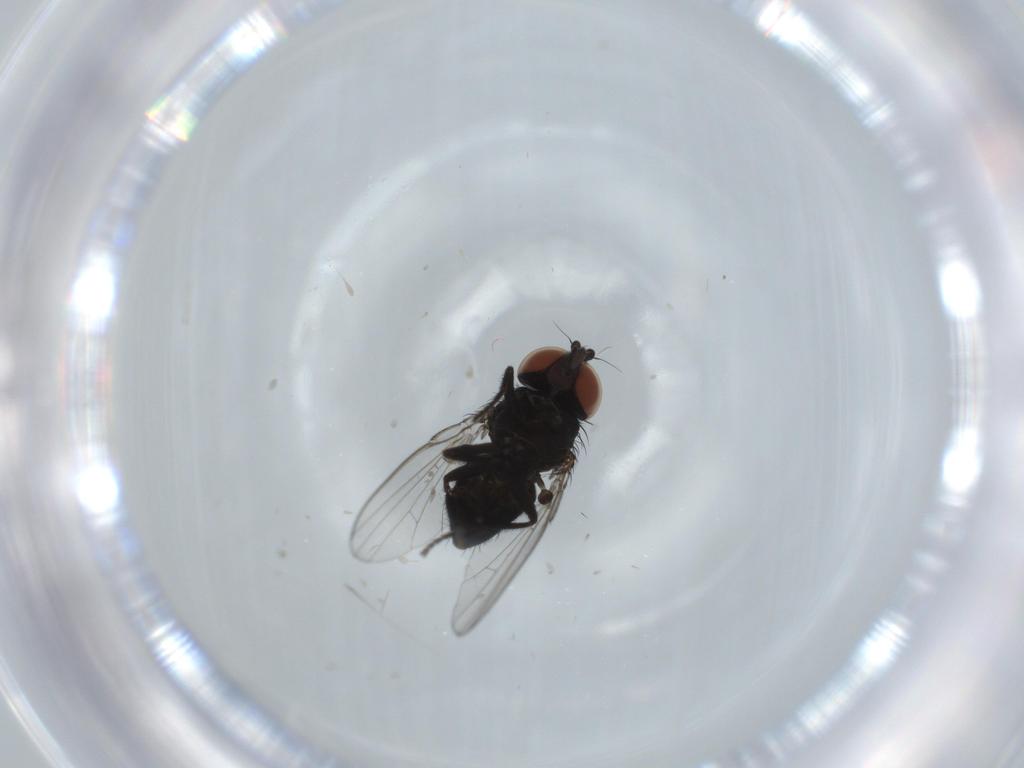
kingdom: Animalia
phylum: Arthropoda
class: Insecta
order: Diptera
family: Milichiidae
